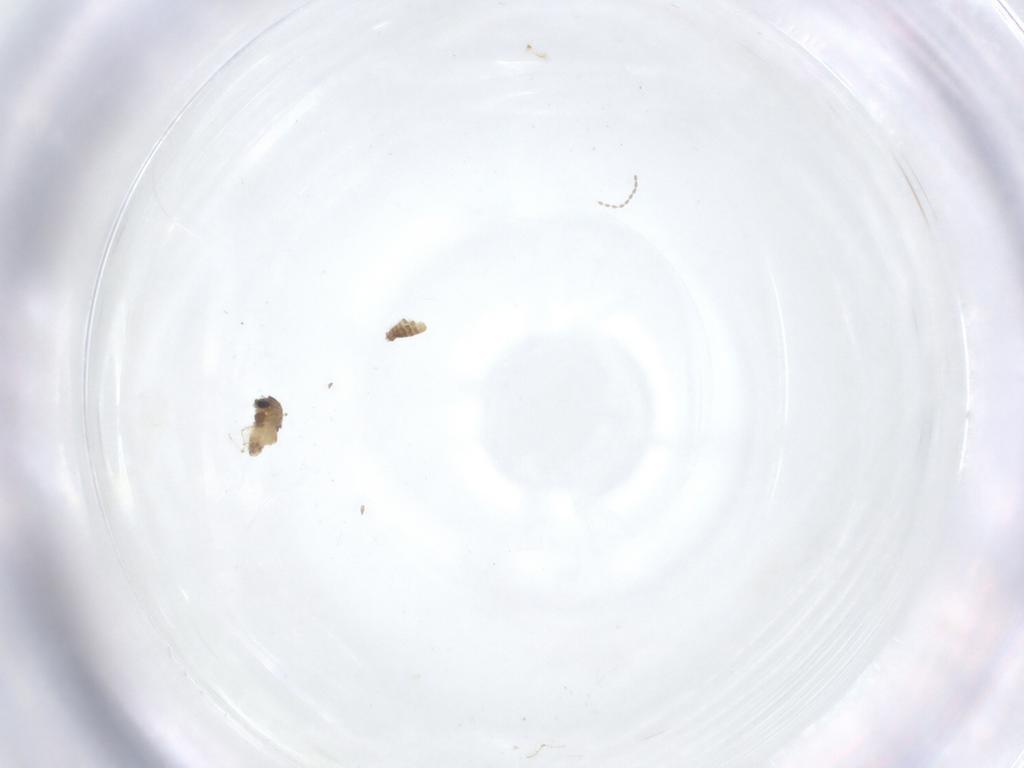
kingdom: Animalia
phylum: Arthropoda
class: Insecta
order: Diptera
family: Chironomidae
